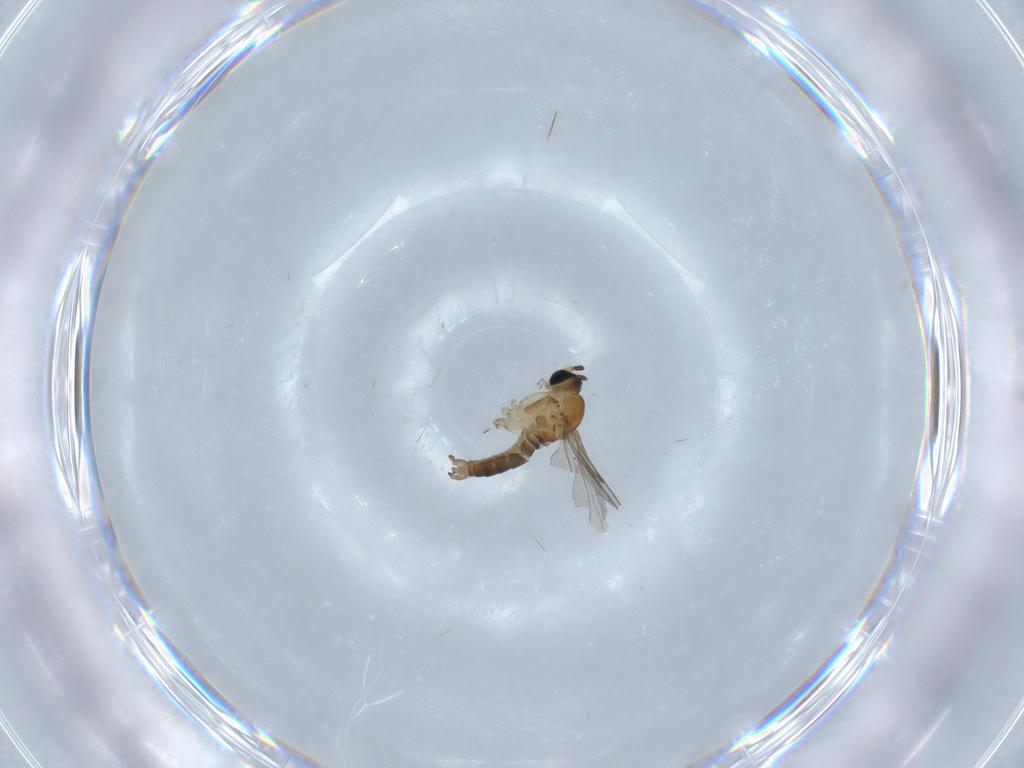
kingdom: Animalia
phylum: Arthropoda
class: Insecta
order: Diptera
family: Sciaridae
